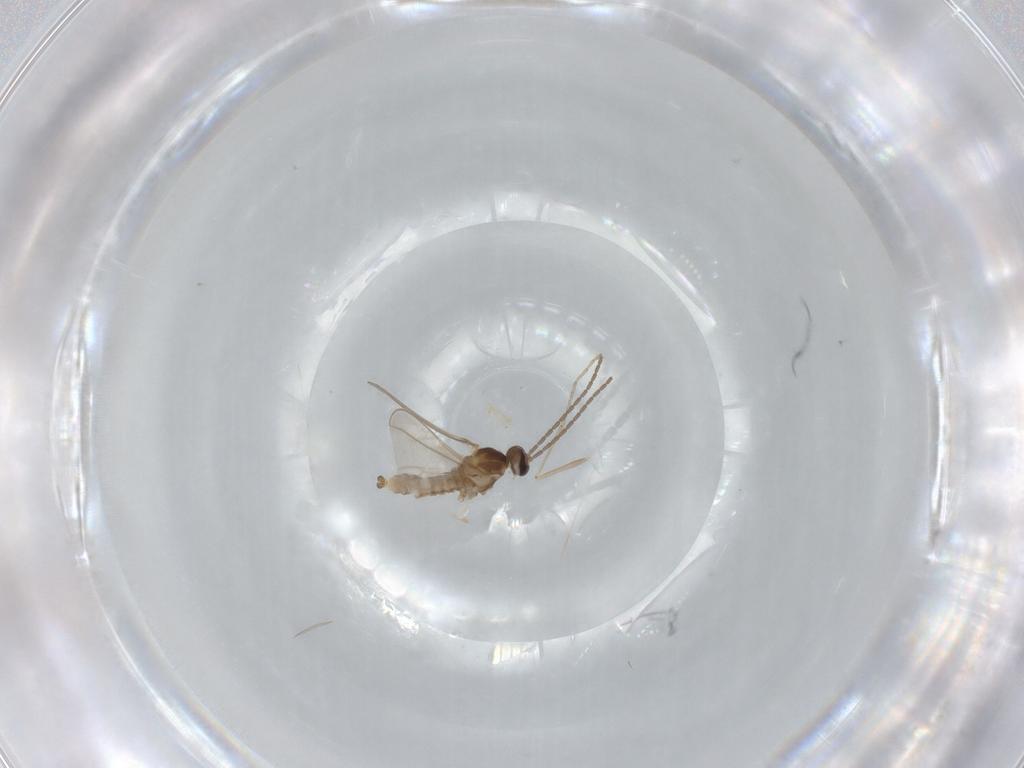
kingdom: Animalia
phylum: Arthropoda
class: Insecta
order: Diptera
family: Cecidomyiidae
